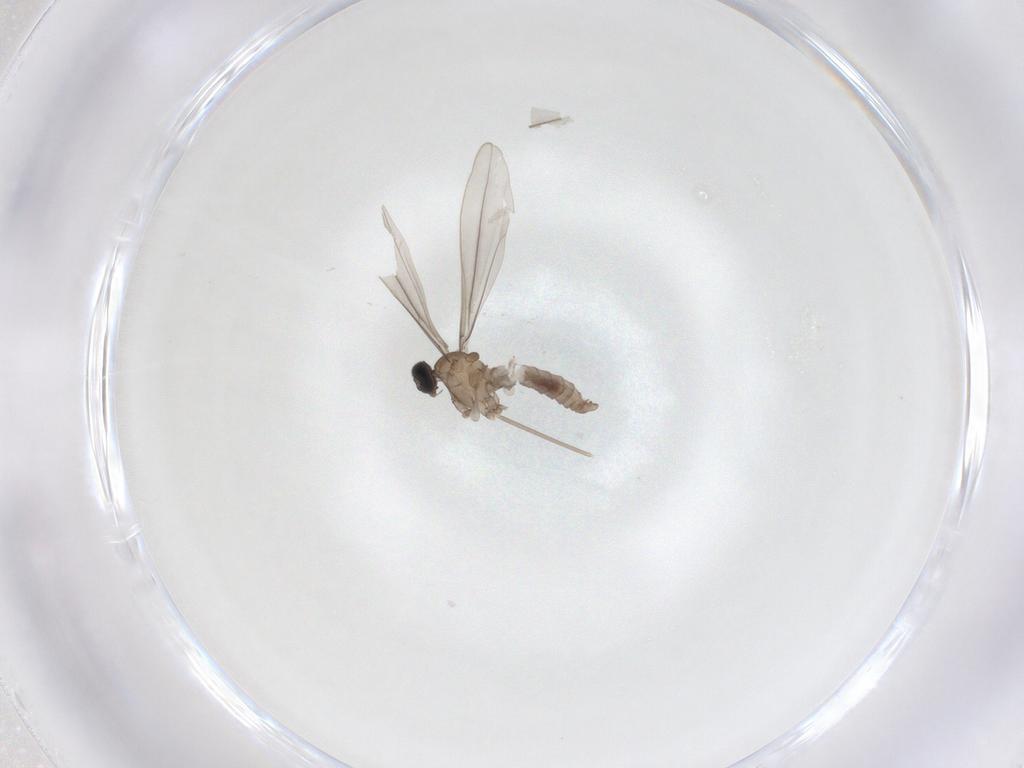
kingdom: Animalia
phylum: Arthropoda
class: Insecta
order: Diptera
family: Chironomidae
